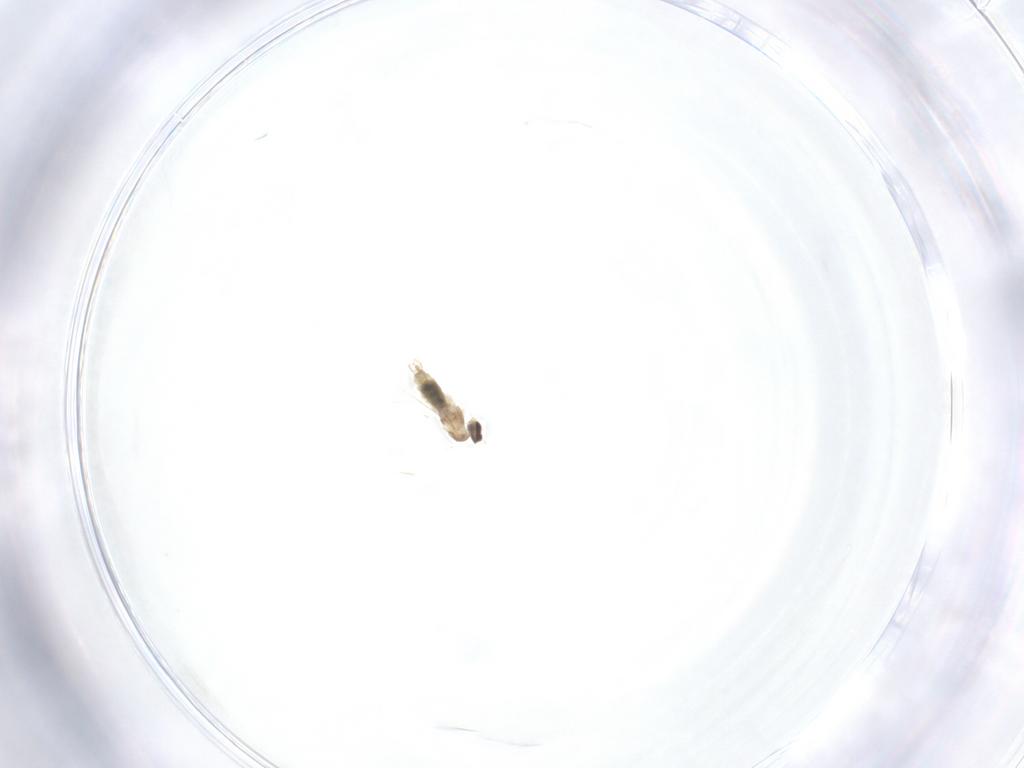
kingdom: Animalia
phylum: Arthropoda
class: Insecta
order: Diptera
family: Cecidomyiidae
